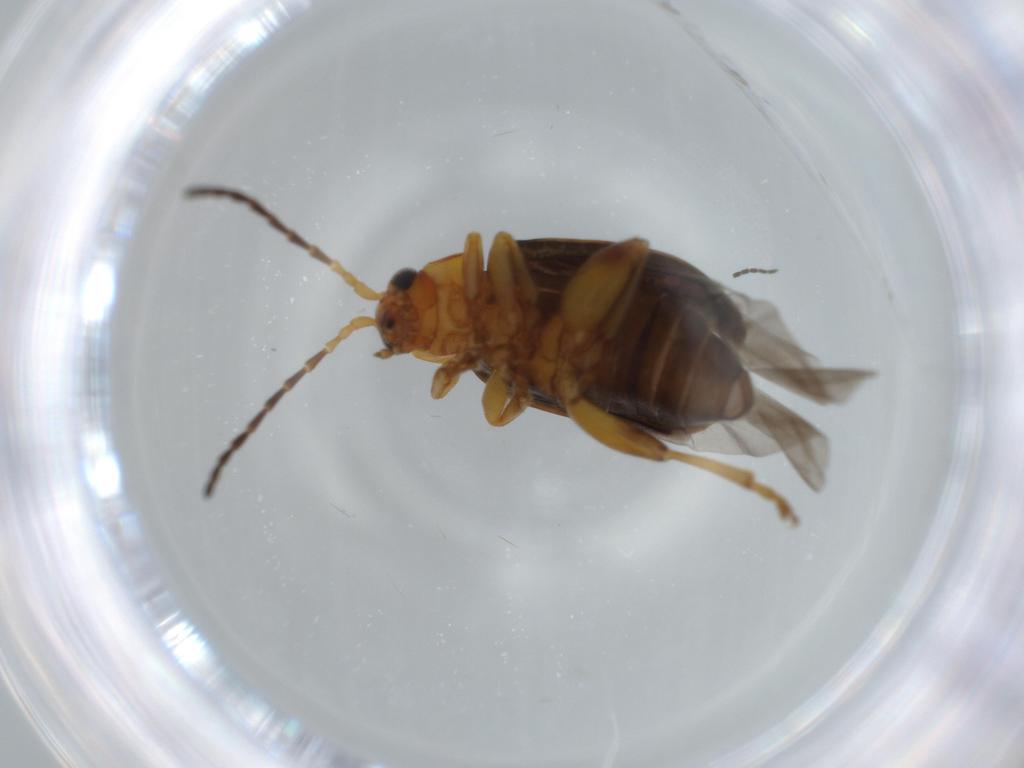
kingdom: Animalia
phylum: Arthropoda
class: Insecta
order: Coleoptera
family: Chrysomelidae
